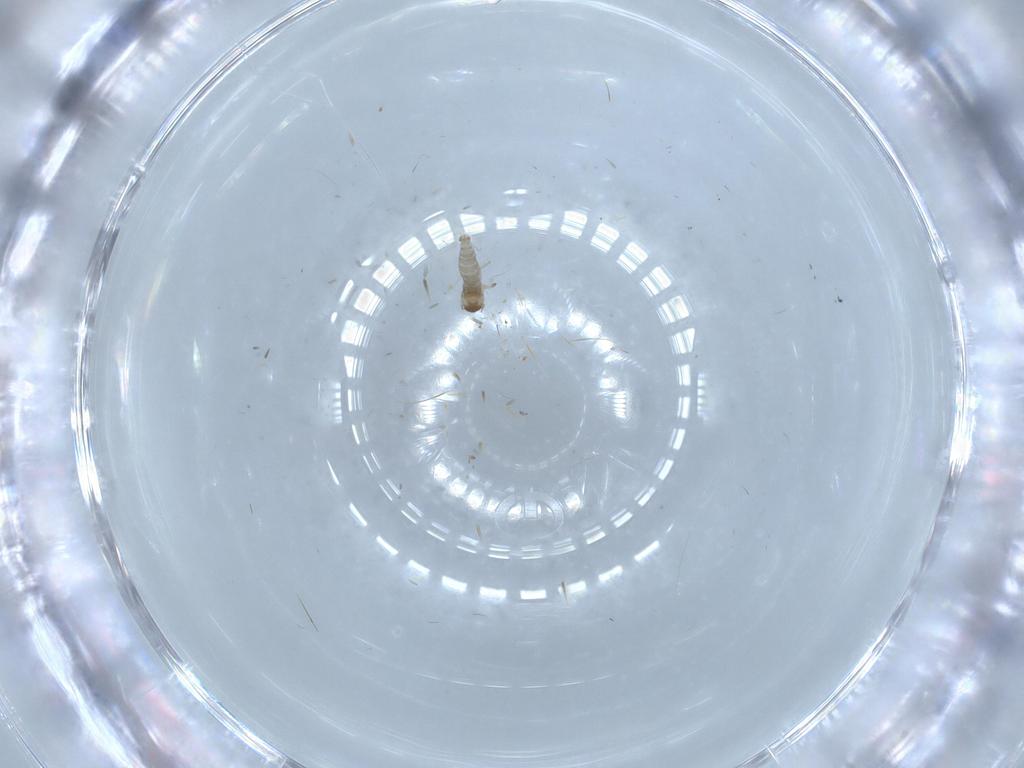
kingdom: Animalia
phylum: Arthropoda
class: Insecta
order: Diptera
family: Cecidomyiidae
